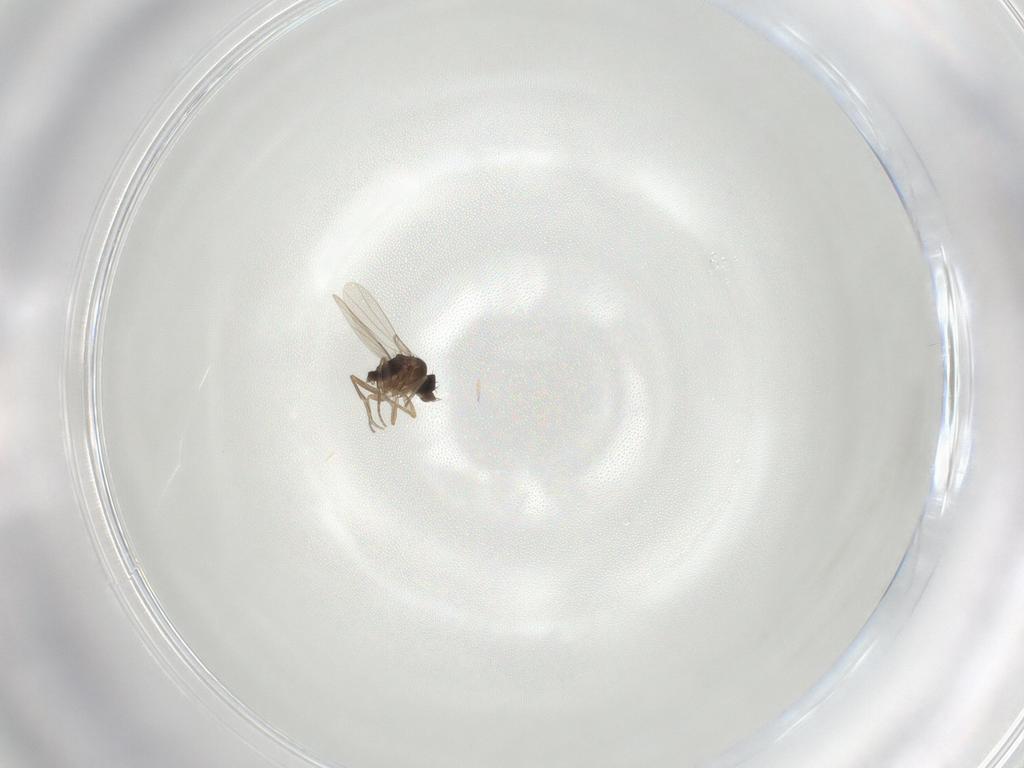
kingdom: Animalia
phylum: Arthropoda
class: Insecta
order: Diptera
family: Phoridae
